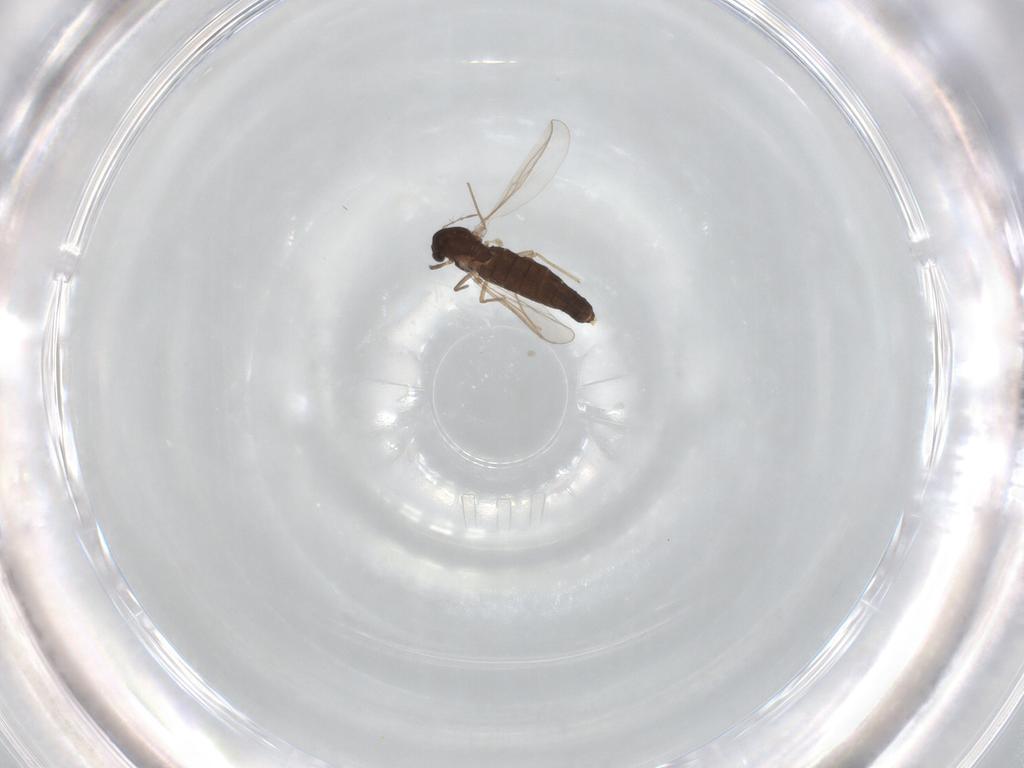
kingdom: Animalia
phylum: Arthropoda
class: Insecta
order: Diptera
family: Chironomidae
